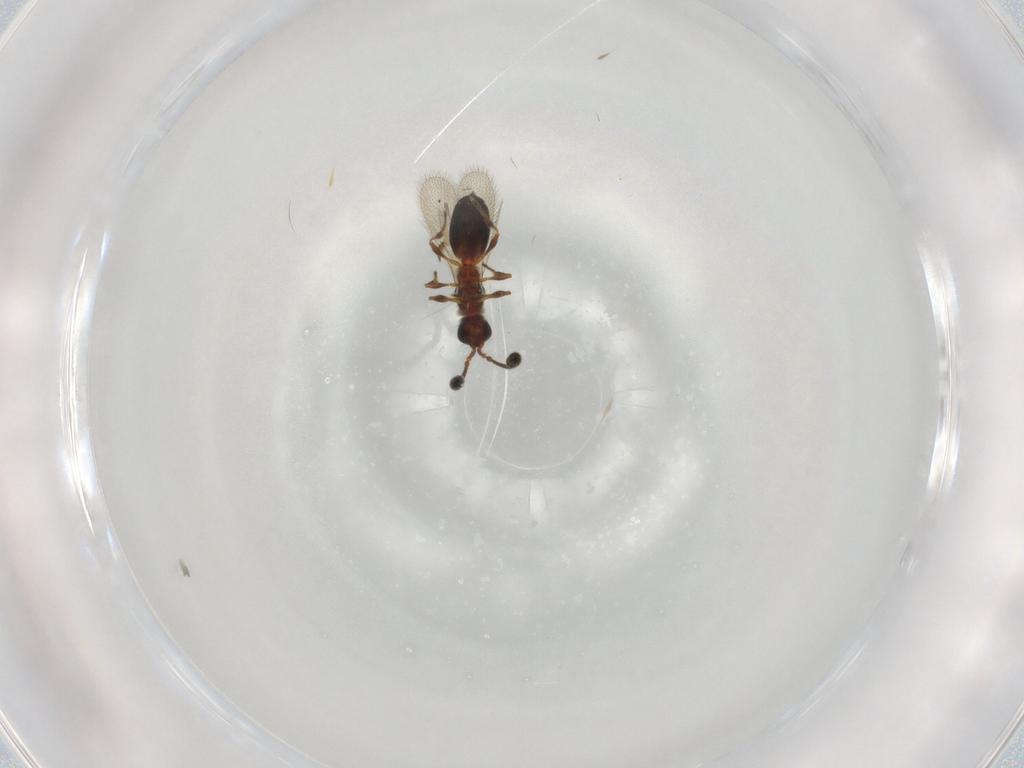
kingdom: Animalia
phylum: Arthropoda
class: Insecta
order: Hymenoptera
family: Diapriidae
